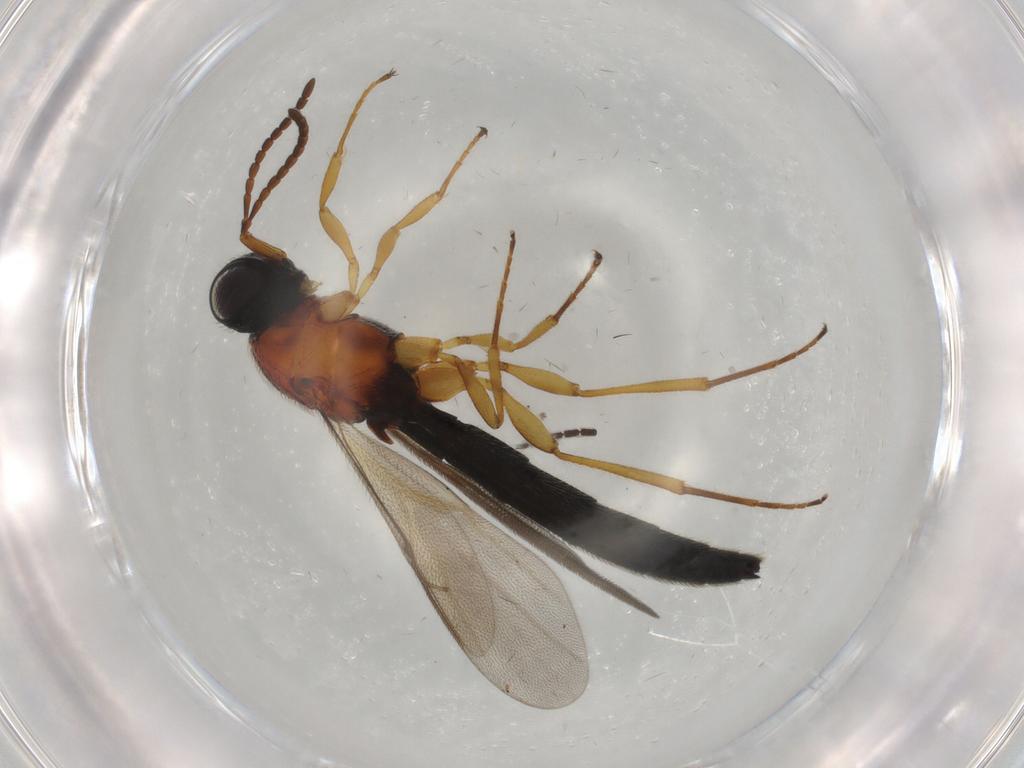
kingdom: Animalia
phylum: Arthropoda
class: Insecta
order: Hymenoptera
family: Scelionidae
